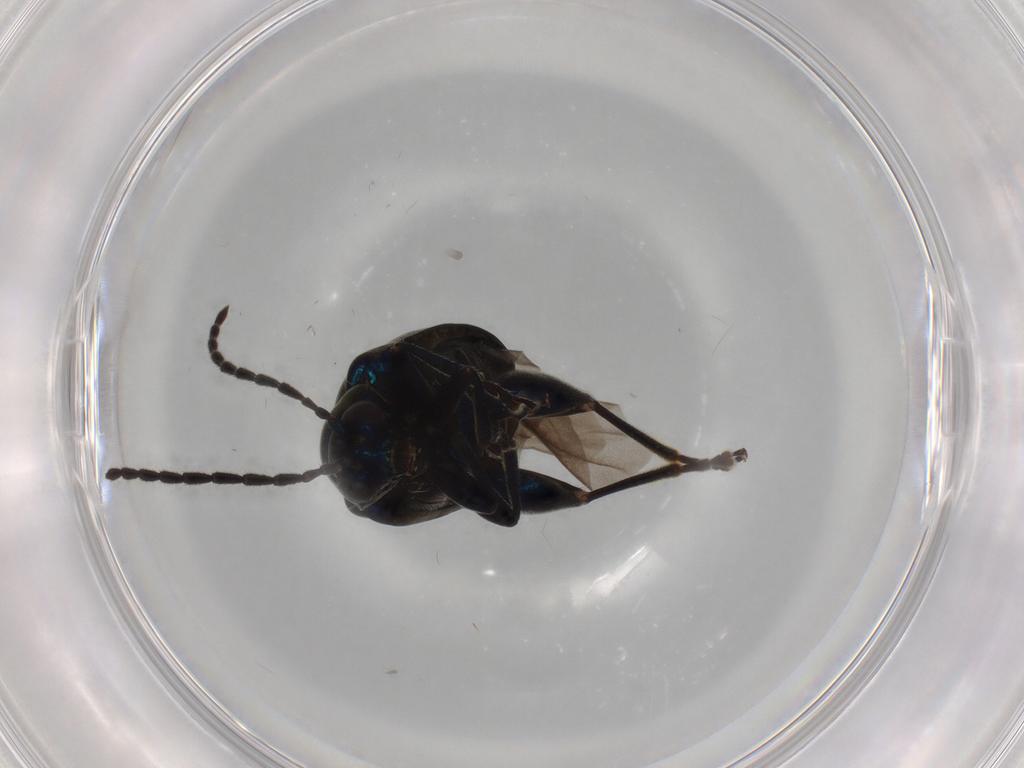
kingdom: Animalia
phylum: Arthropoda
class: Insecta
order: Coleoptera
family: Chrysomelidae
